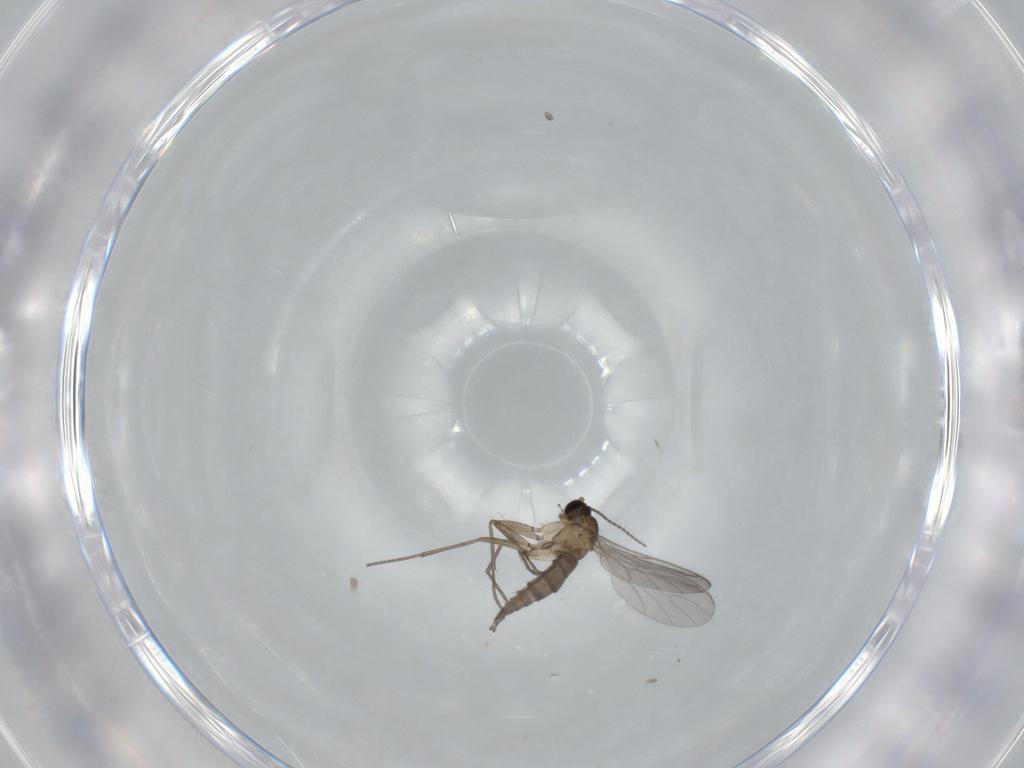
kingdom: Animalia
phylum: Arthropoda
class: Insecta
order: Diptera
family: Sciaridae
